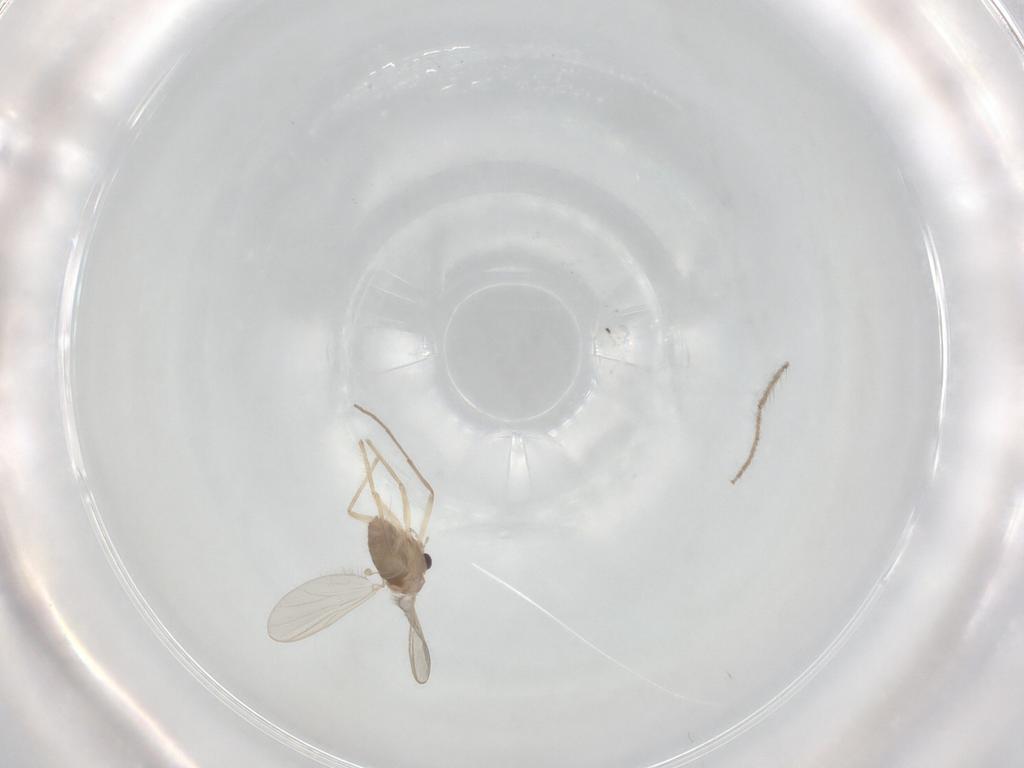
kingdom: Animalia
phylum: Arthropoda
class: Insecta
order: Diptera
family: Chironomidae
